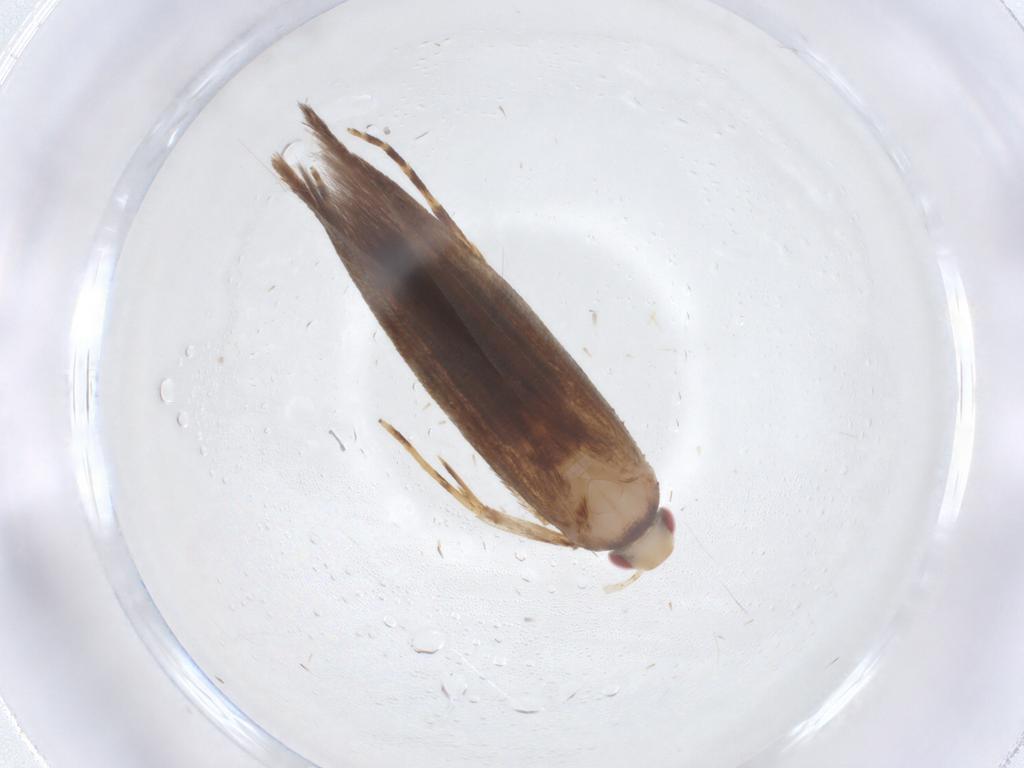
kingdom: Animalia
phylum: Arthropoda
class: Insecta
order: Lepidoptera
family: Cosmopterigidae
